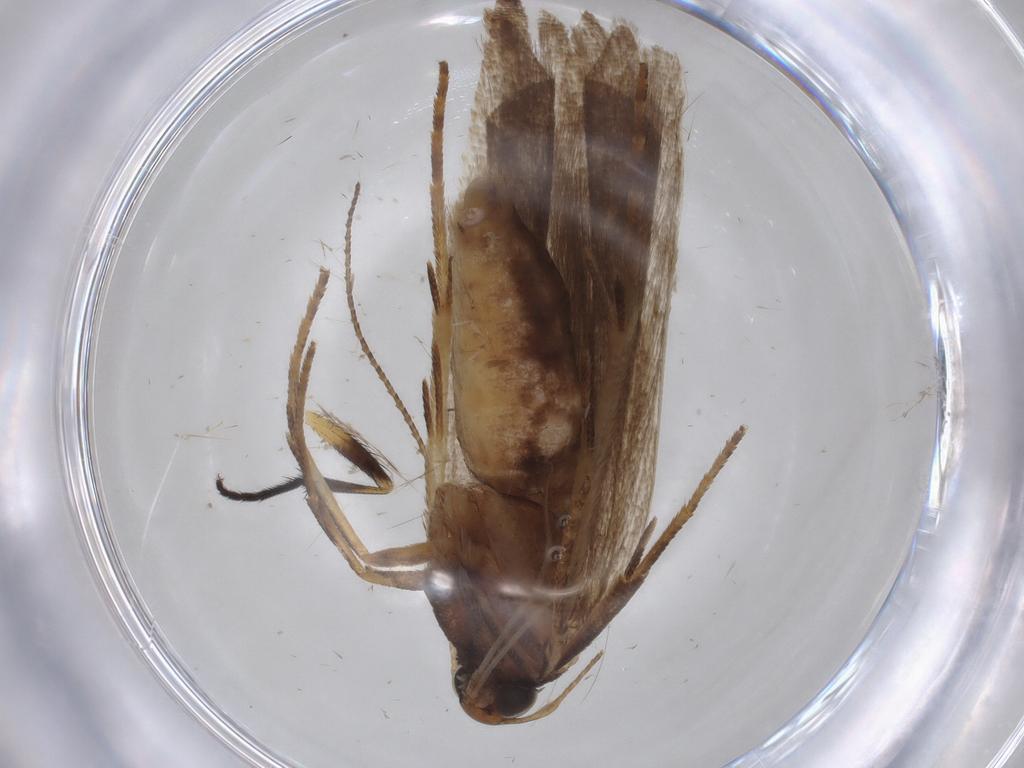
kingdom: Animalia
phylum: Arthropoda
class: Insecta
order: Lepidoptera
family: Gelechiidae
